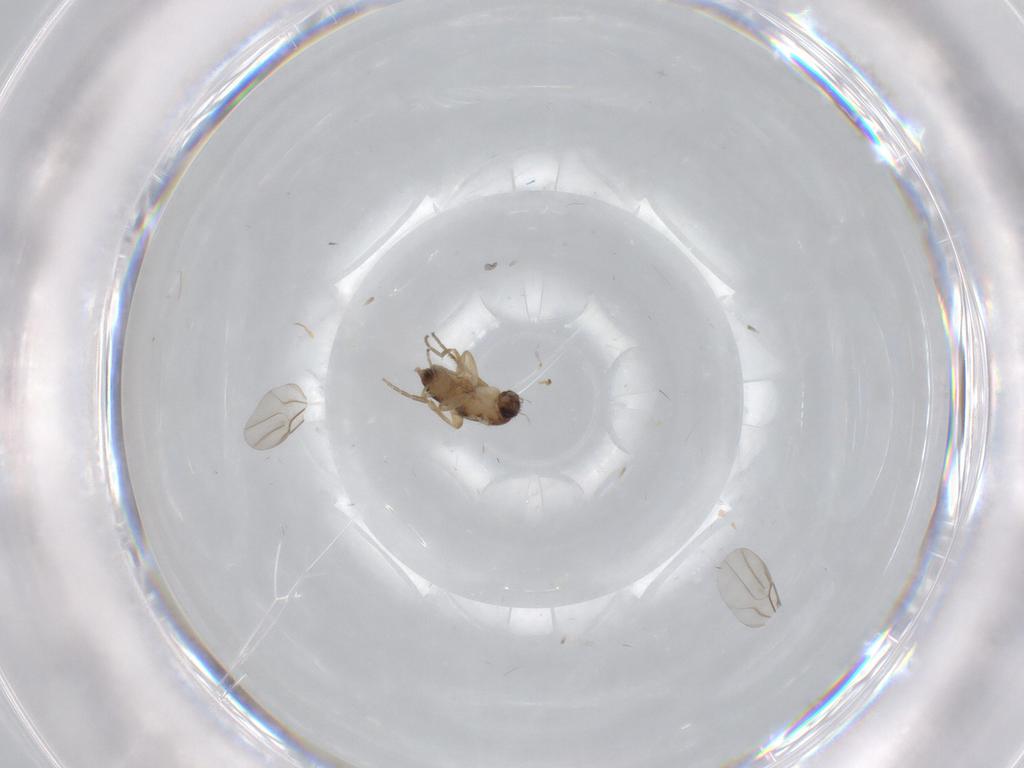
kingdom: Animalia
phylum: Arthropoda
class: Insecta
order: Diptera
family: Phoridae
